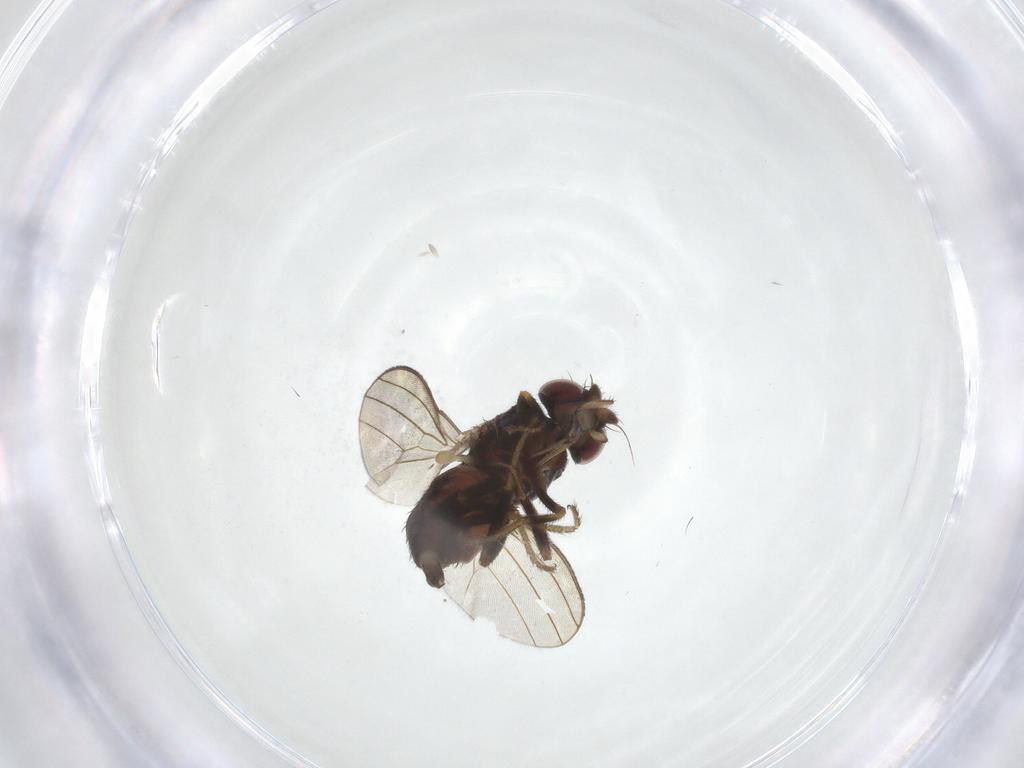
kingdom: Animalia
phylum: Arthropoda
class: Insecta
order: Diptera
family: Milichiidae
